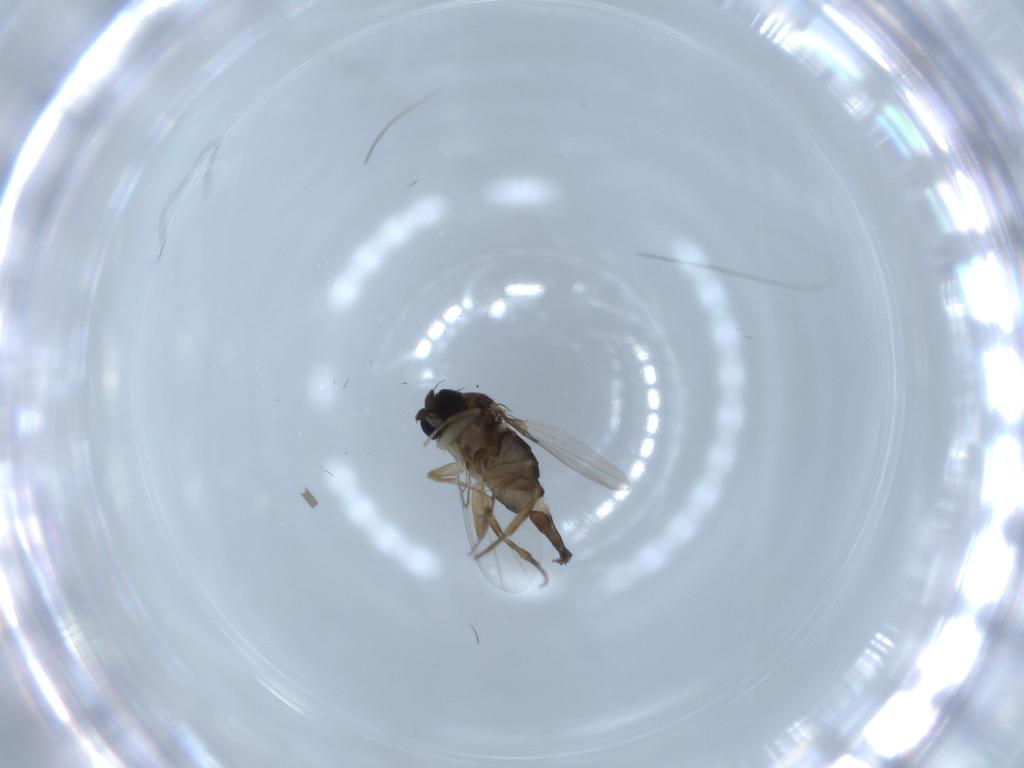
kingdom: Animalia
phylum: Arthropoda
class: Insecta
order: Diptera
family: Phoridae
